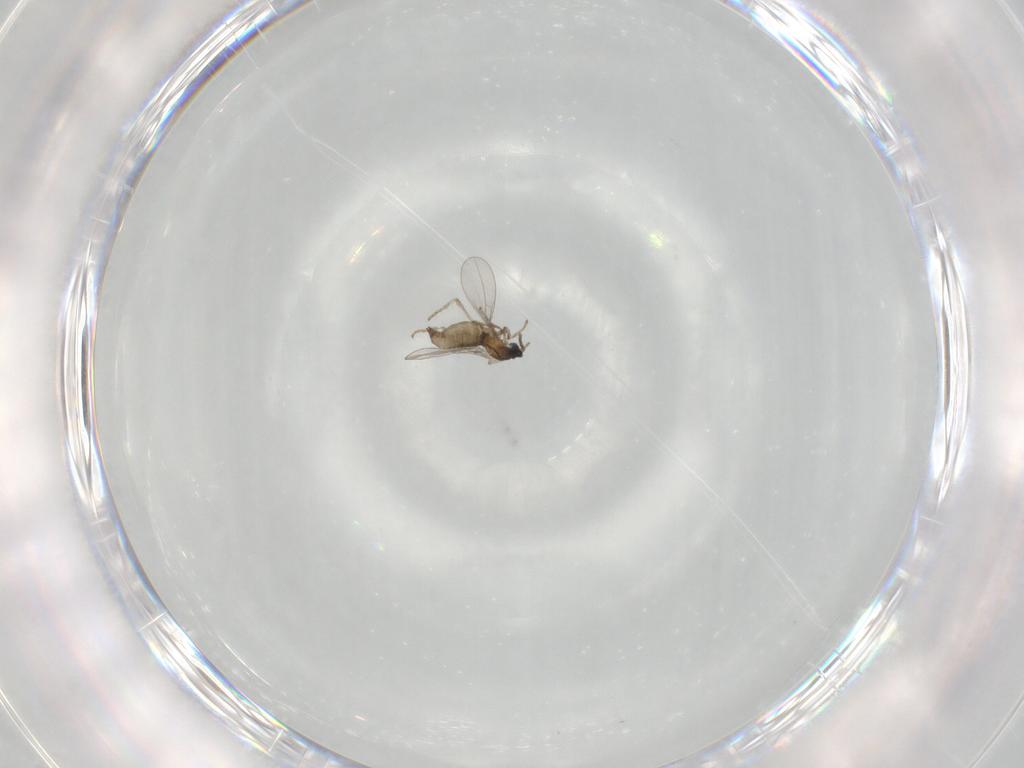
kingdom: Animalia
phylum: Arthropoda
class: Insecta
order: Diptera
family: Cecidomyiidae
